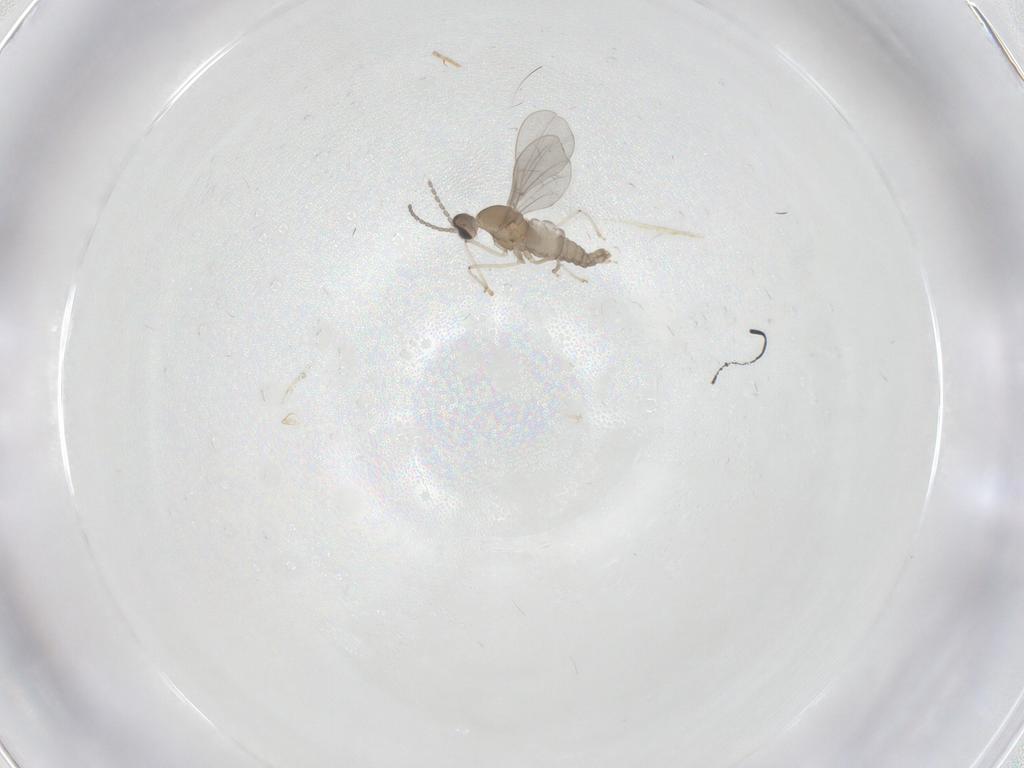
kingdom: Animalia
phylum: Arthropoda
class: Insecta
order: Diptera
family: Cecidomyiidae
